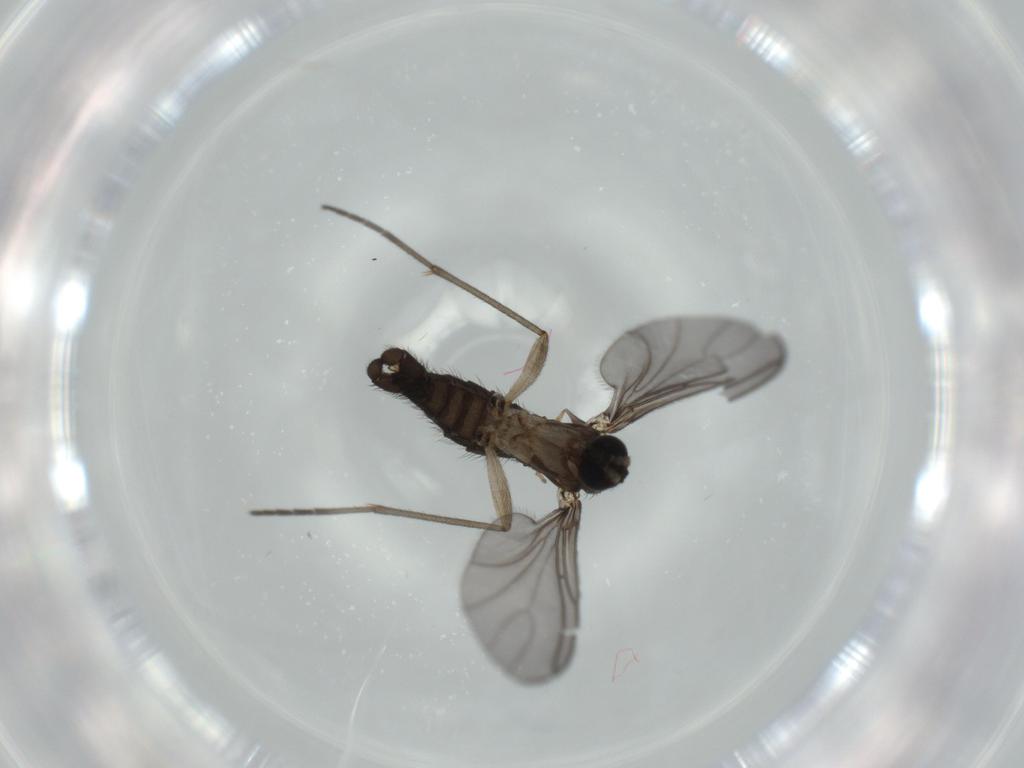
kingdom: Animalia
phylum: Arthropoda
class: Insecta
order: Diptera
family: Sciaridae
